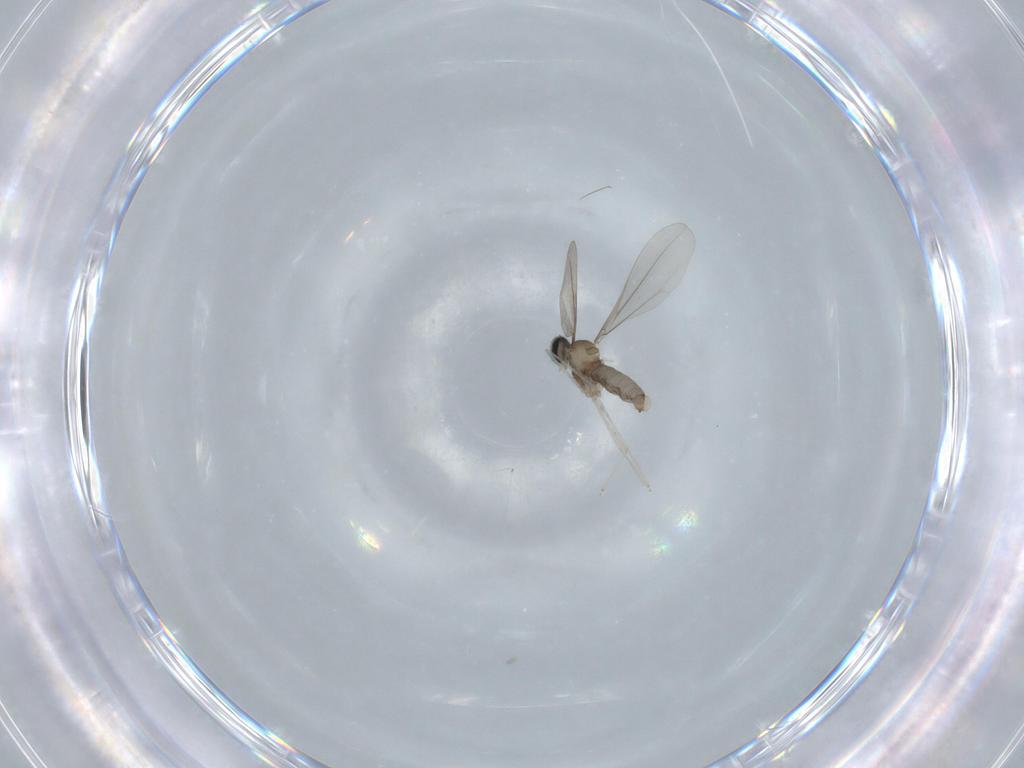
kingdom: Animalia
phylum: Arthropoda
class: Insecta
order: Diptera
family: Cecidomyiidae
